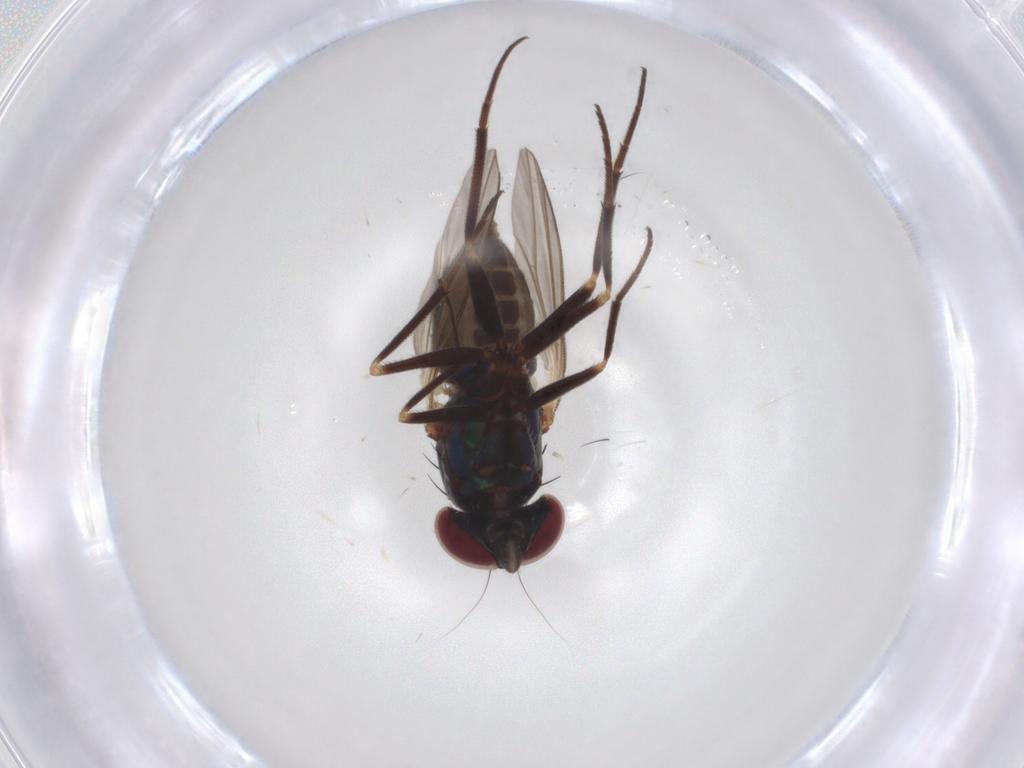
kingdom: Animalia
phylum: Arthropoda
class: Insecta
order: Diptera
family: Dolichopodidae
